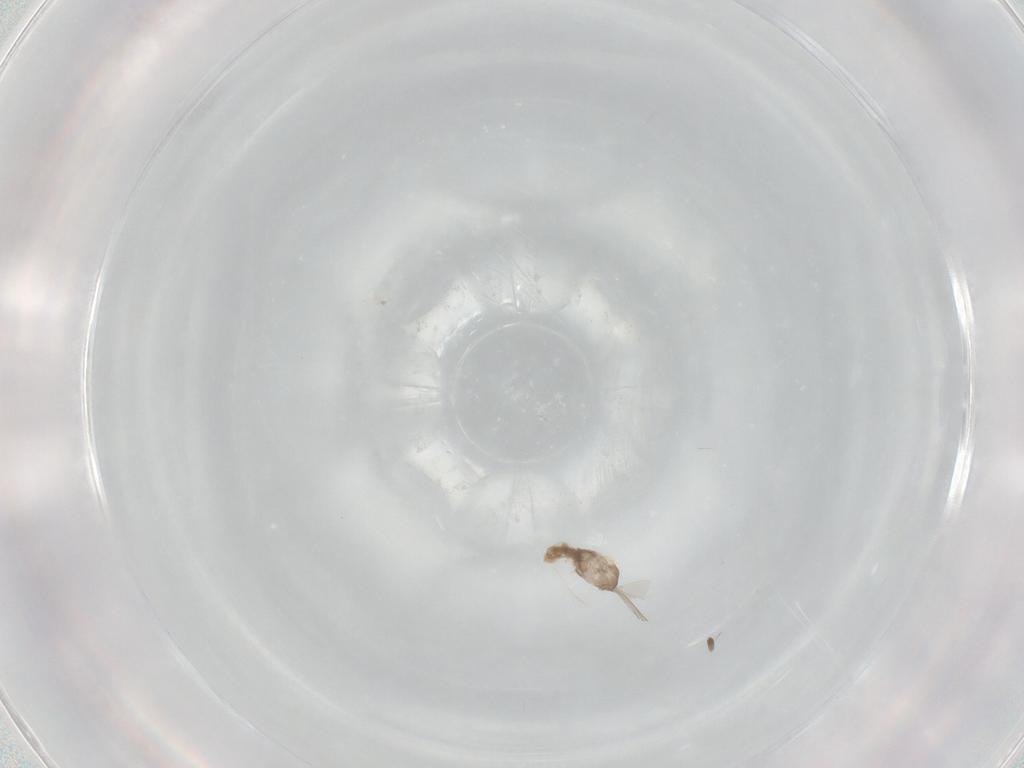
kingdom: Animalia
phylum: Arthropoda
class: Insecta
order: Diptera
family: Cecidomyiidae
